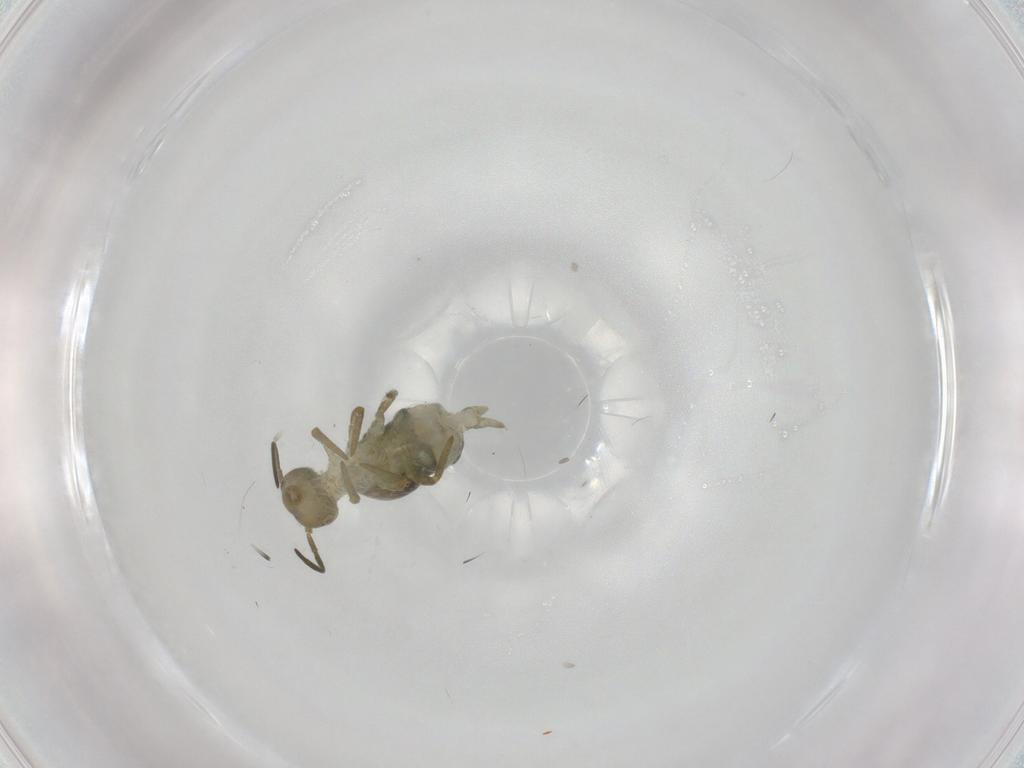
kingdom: Animalia
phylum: Arthropoda
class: Collembola
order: Symphypleona
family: Sminthuridae
